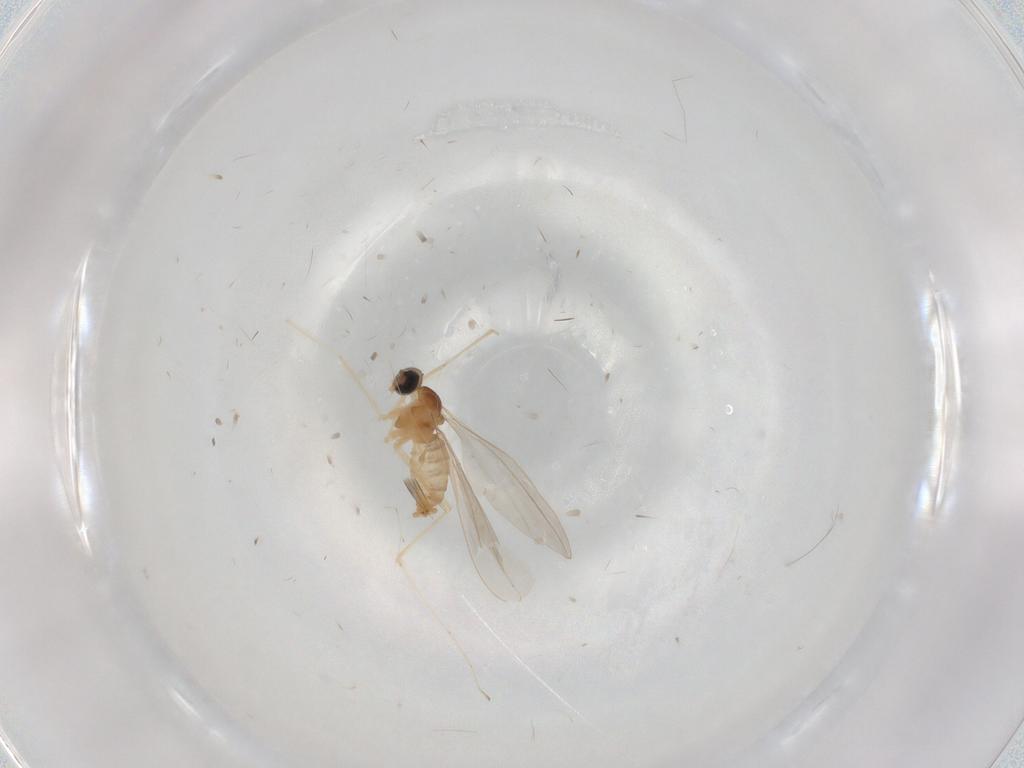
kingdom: Animalia
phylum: Arthropoda
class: Insecta
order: Diptera
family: Cecidomyiidae
